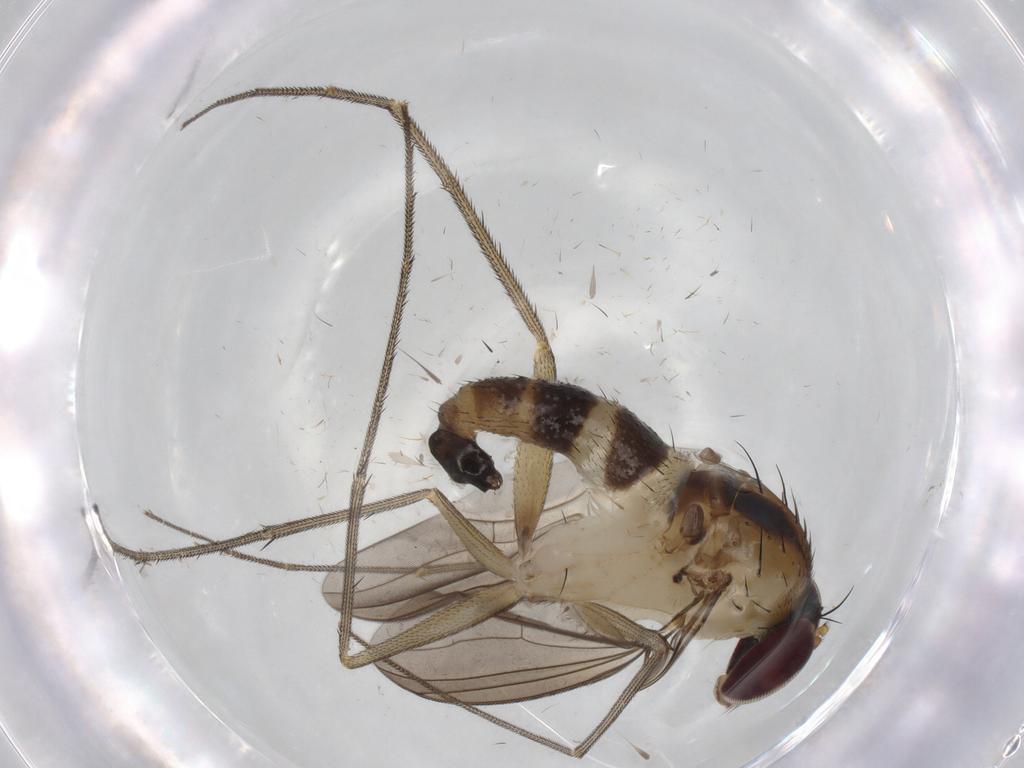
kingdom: Animalia
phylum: Arthropoda
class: Insecta
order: Diptera
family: Dolichopodidae
